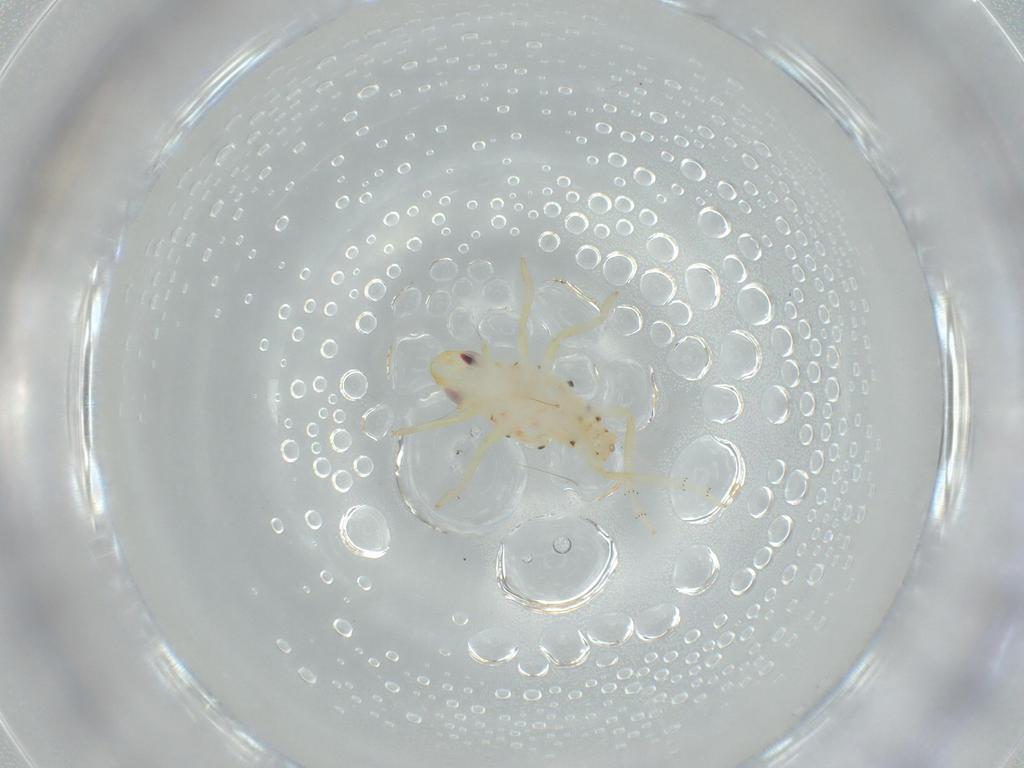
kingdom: Animalia
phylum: Arthropoda
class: Insecta
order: Hemiptera
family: Tropiduchidae
